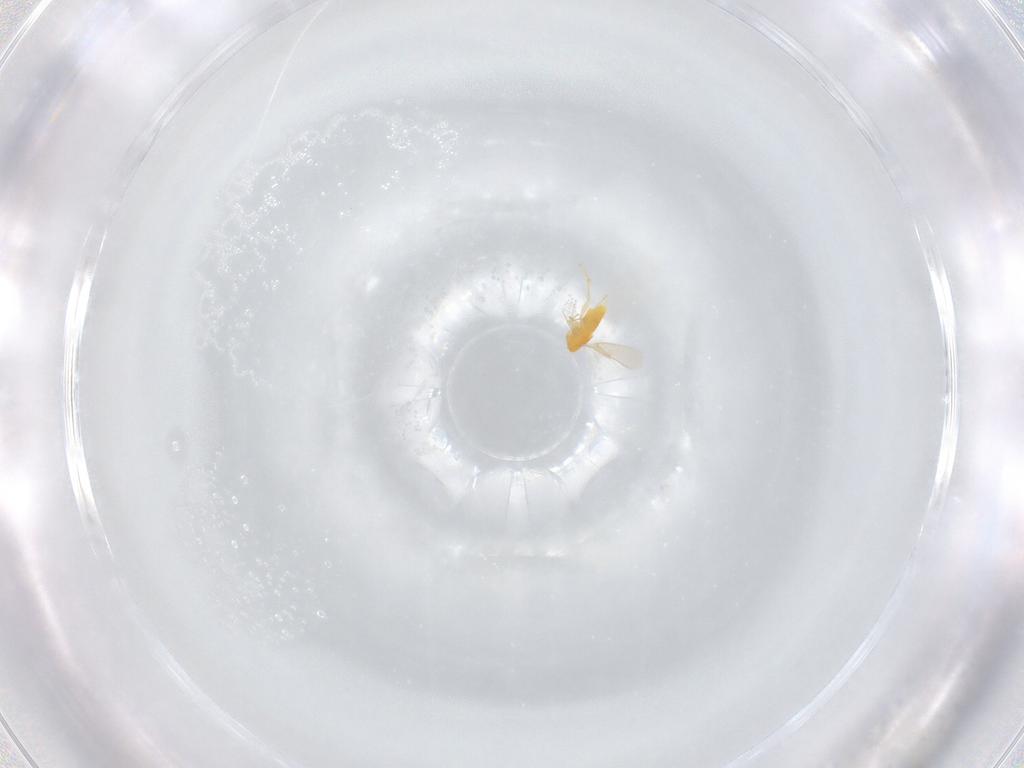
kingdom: Animalia
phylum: Arthropoda
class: Insecta
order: Hymenoptera
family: Aphelinidae
